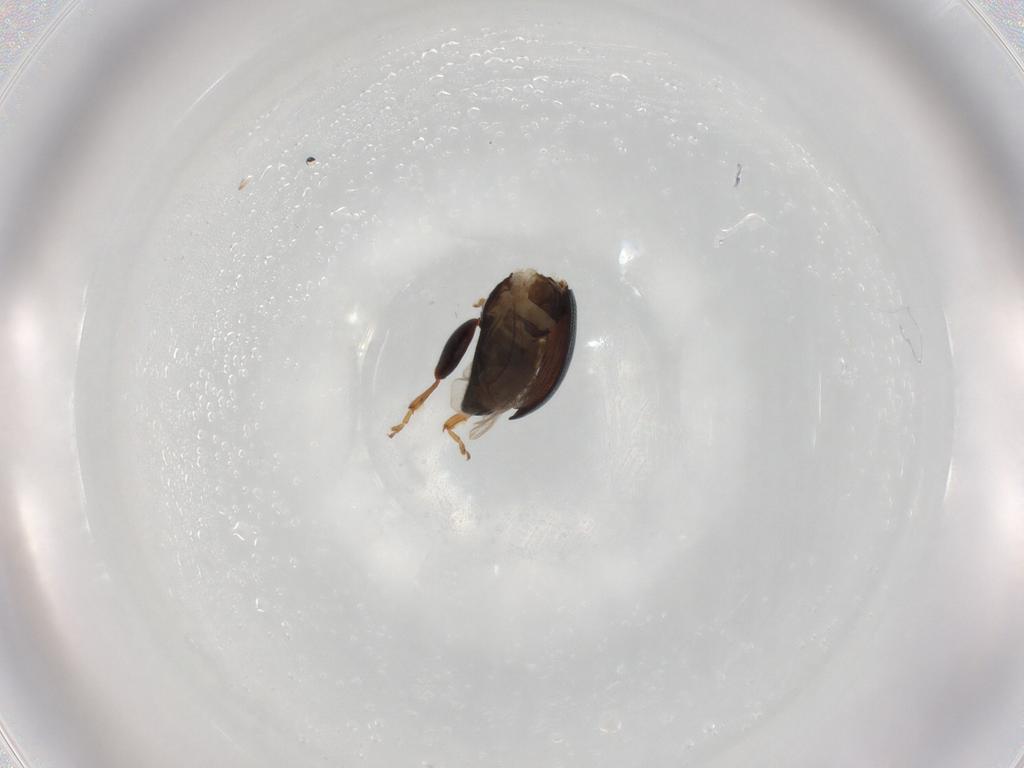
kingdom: Animalia
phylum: Arthropoda
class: Insecta
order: Coleoptera
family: Chrysomelidae
